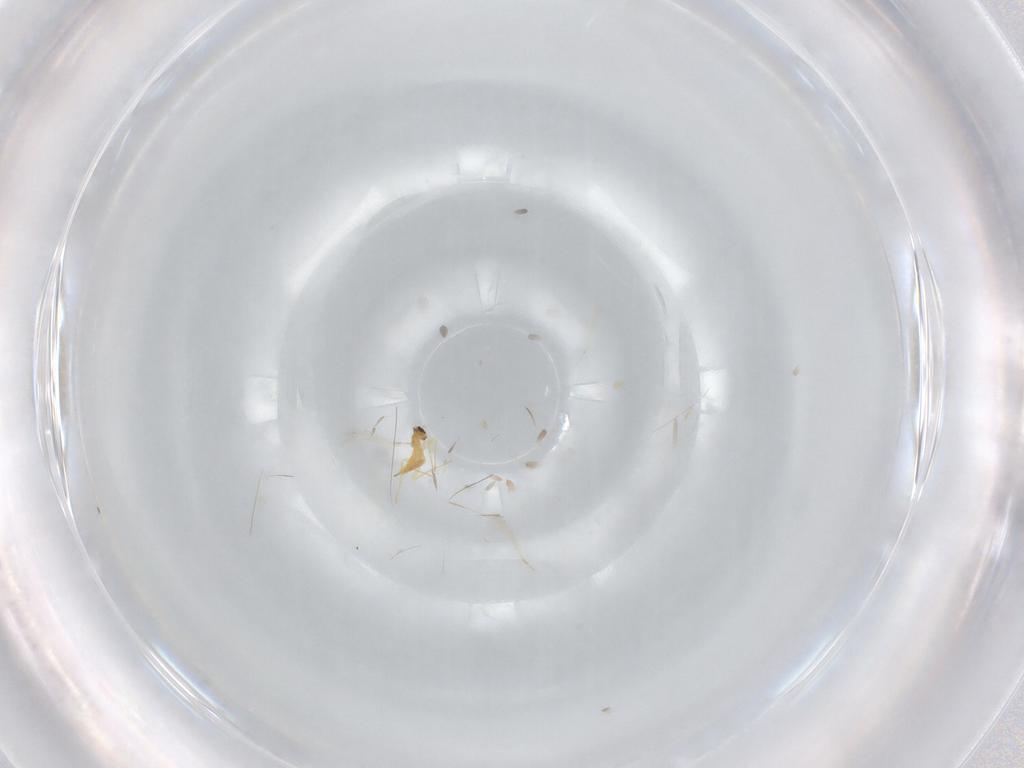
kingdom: Animalia
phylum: Arthropoda
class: Insecta
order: Hymenoptera
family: Mymaridae
